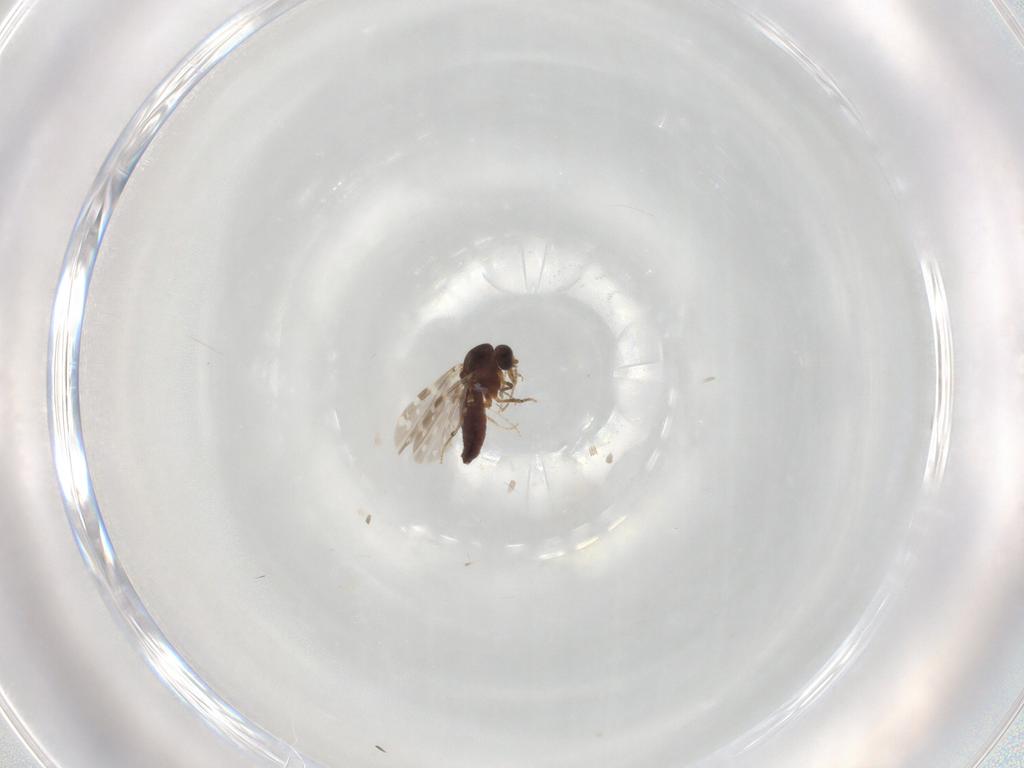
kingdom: Animalia
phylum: Arthropoda
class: Insecta
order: Diptera
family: Ceratopogonidae
